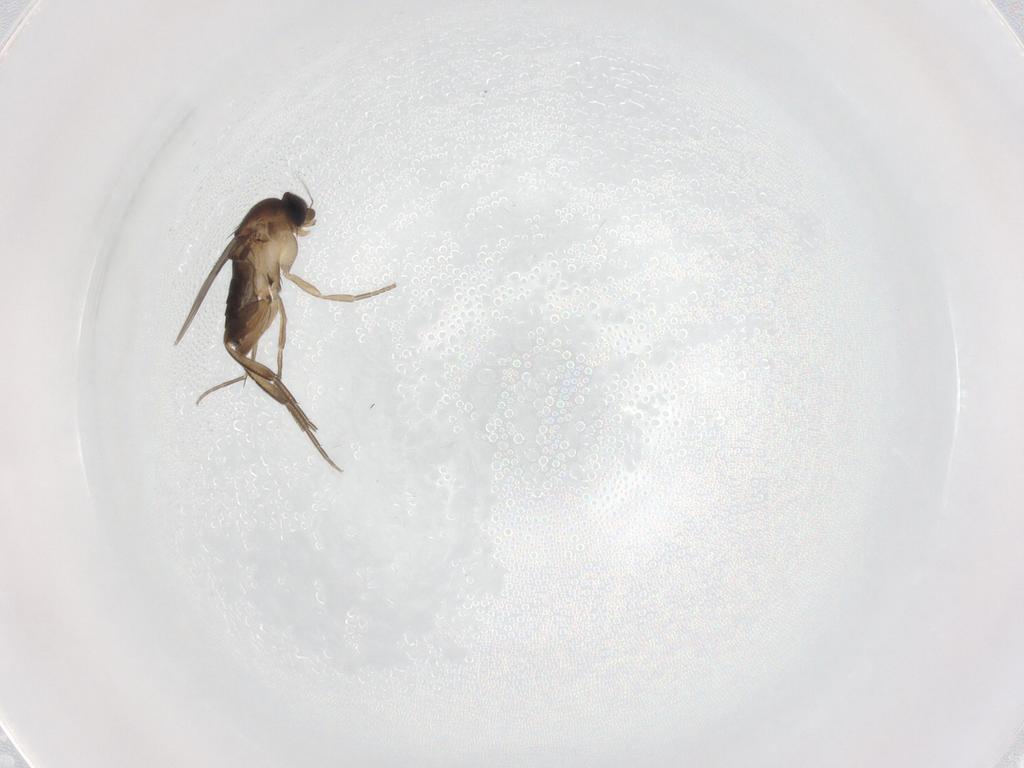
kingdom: Animalia
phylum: Arthropoda
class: Insecta
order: Diptera
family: Phoridae
